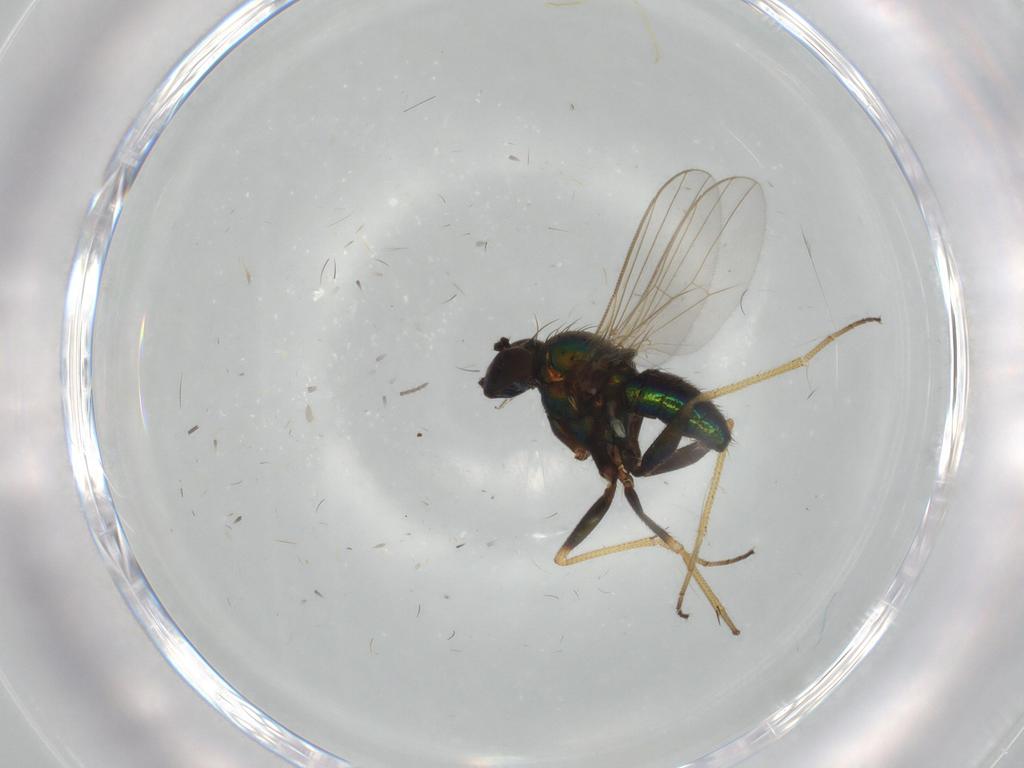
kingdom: Animalia
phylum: Arthropoda
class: Insecta
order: Diptera
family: Dolichopodidae
